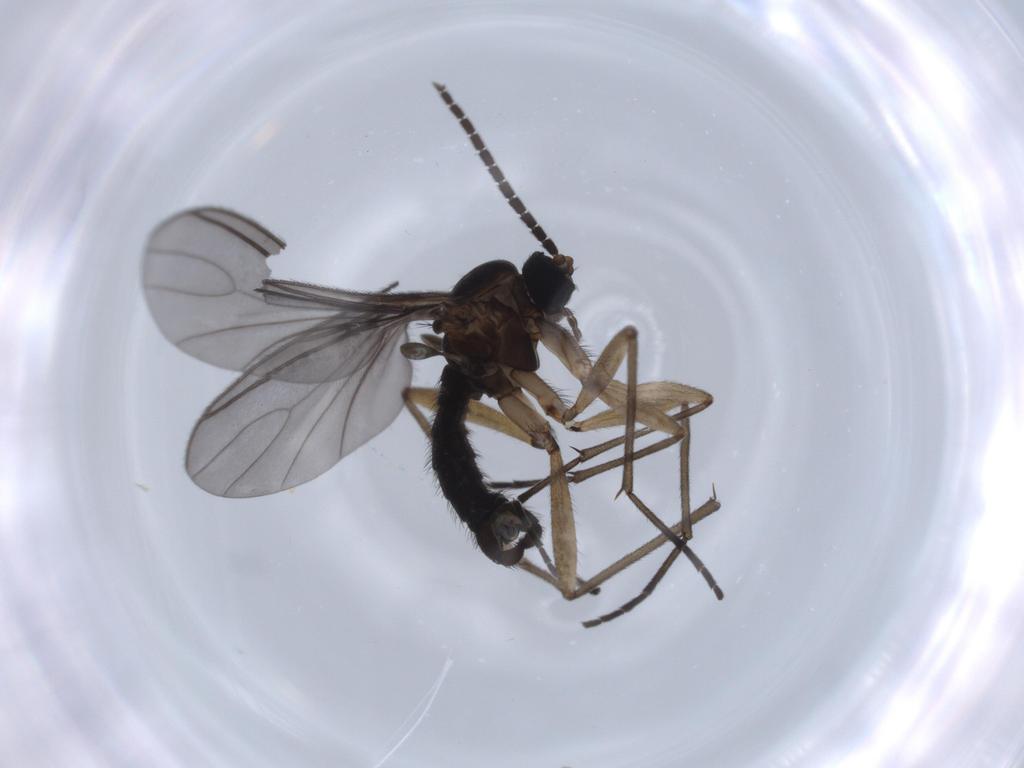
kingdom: Animalia
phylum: Arthropoda
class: Insecta
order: Diptera
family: Sciaridae
